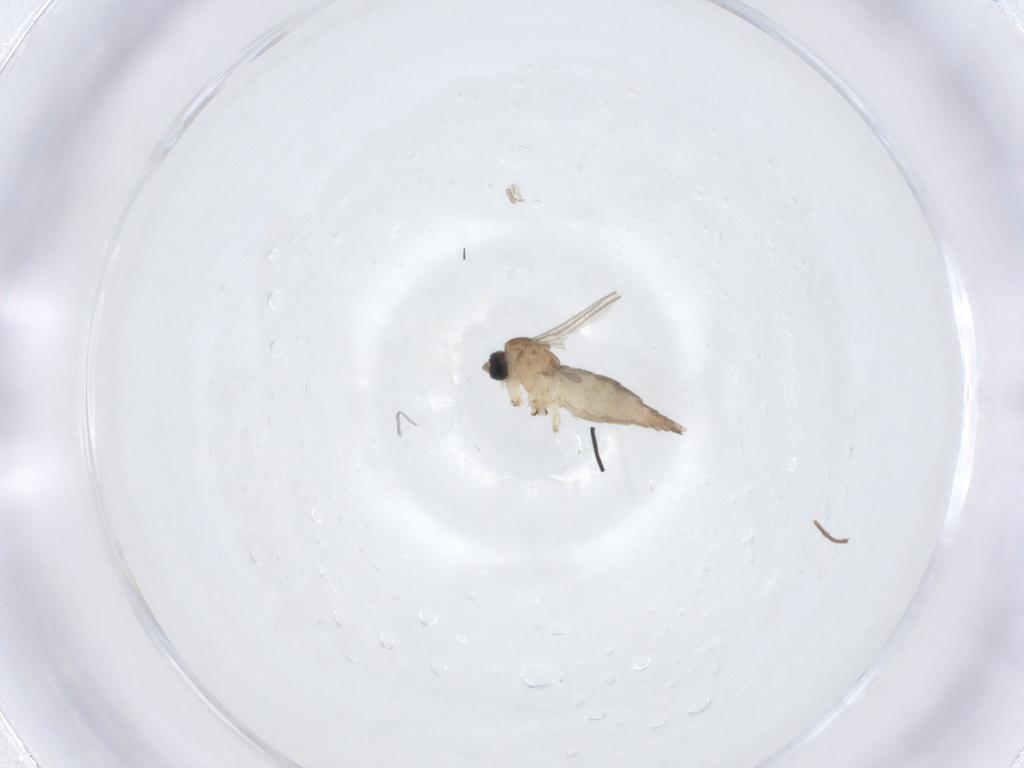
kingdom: Animalia
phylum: Arthropoda
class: Insecta
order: Diptera
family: Sciaridae
